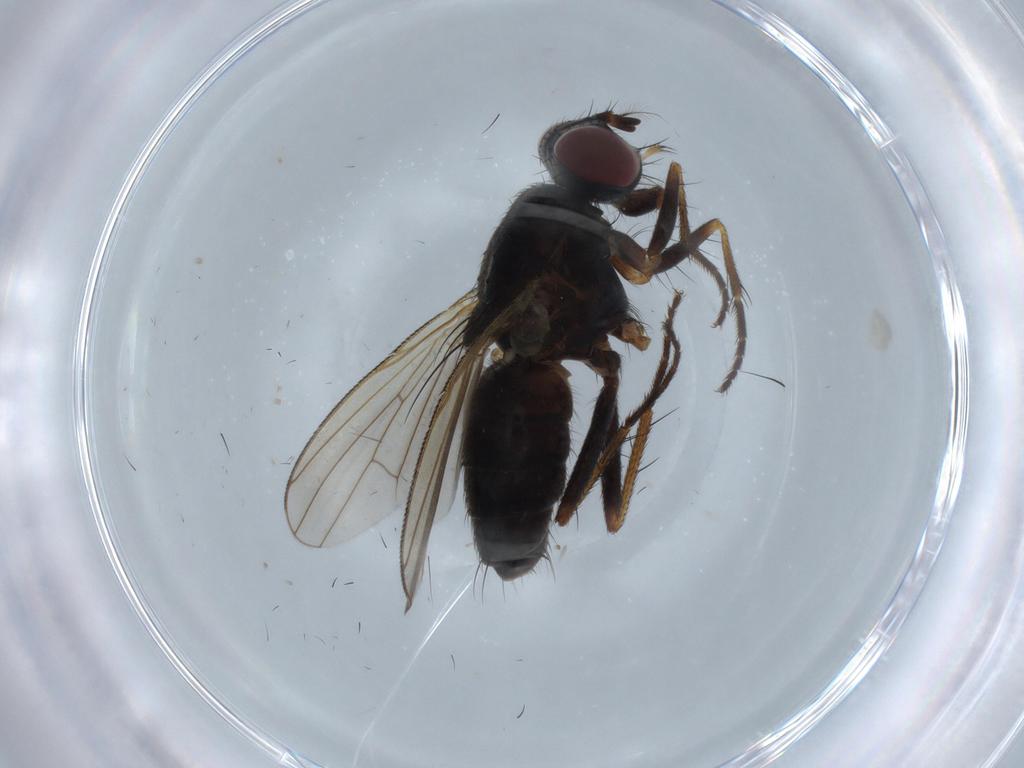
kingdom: Animalia
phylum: Arthropoda
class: Insecta
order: Diptera
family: Muscidae
